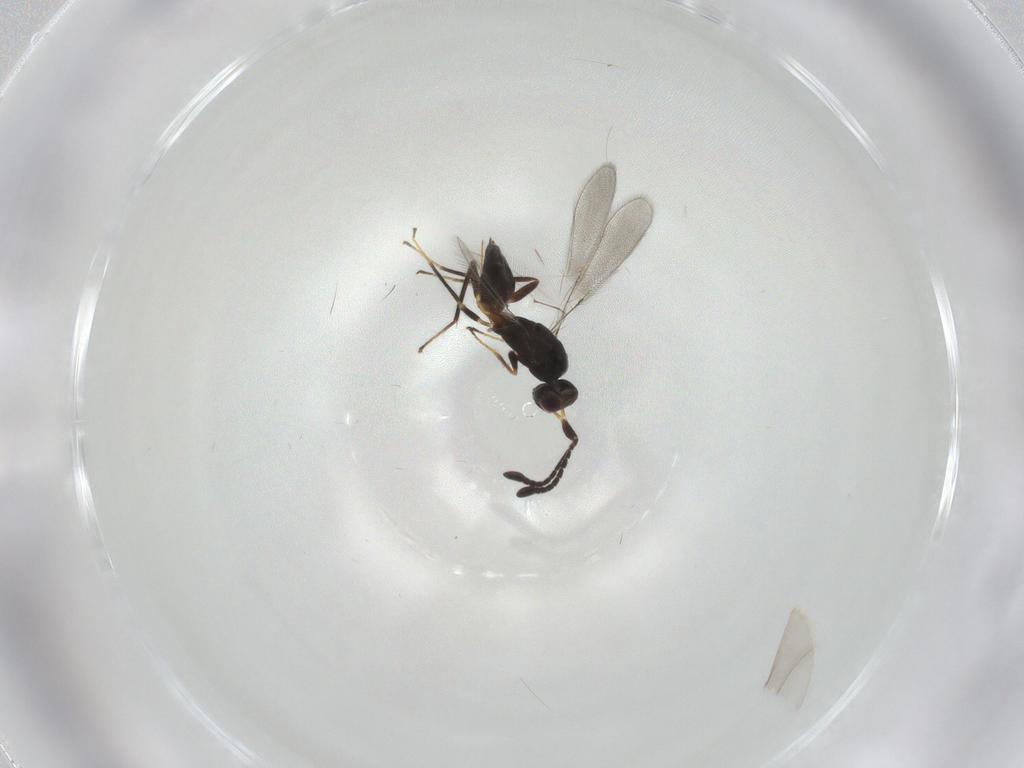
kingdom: Animalia
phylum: Arthropoda
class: Insecta
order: Hymenoptera
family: Mymaridae
